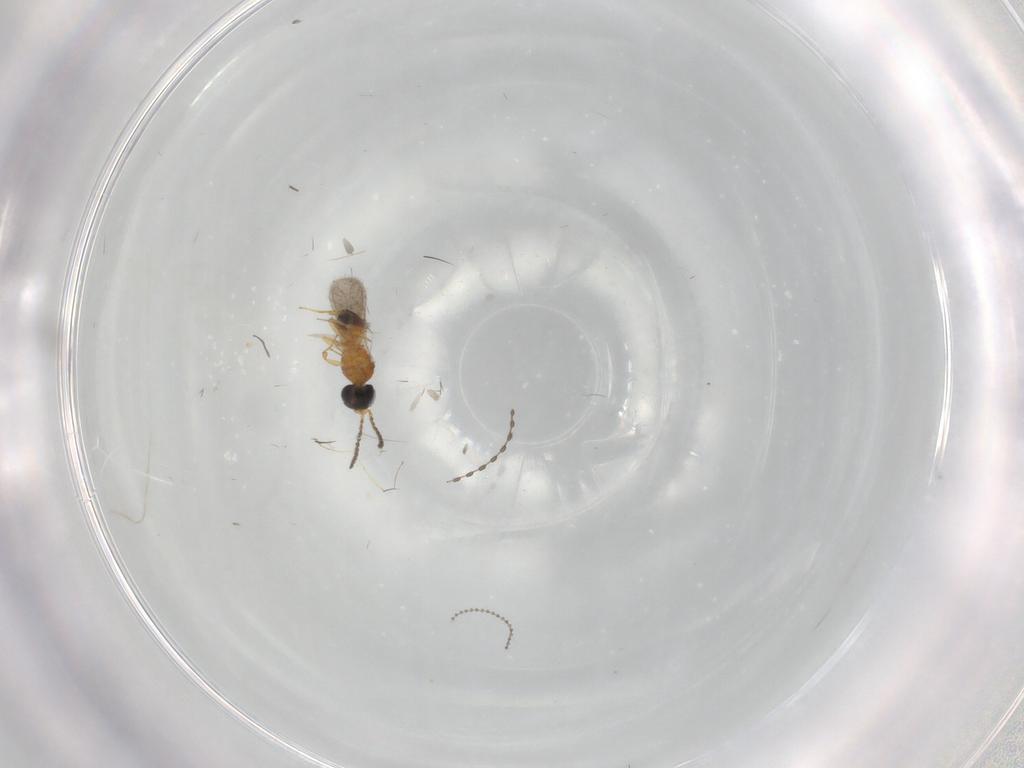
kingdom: Animalia
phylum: Arthropoda
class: Insecta
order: Hymenoptera
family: Scelionidae
